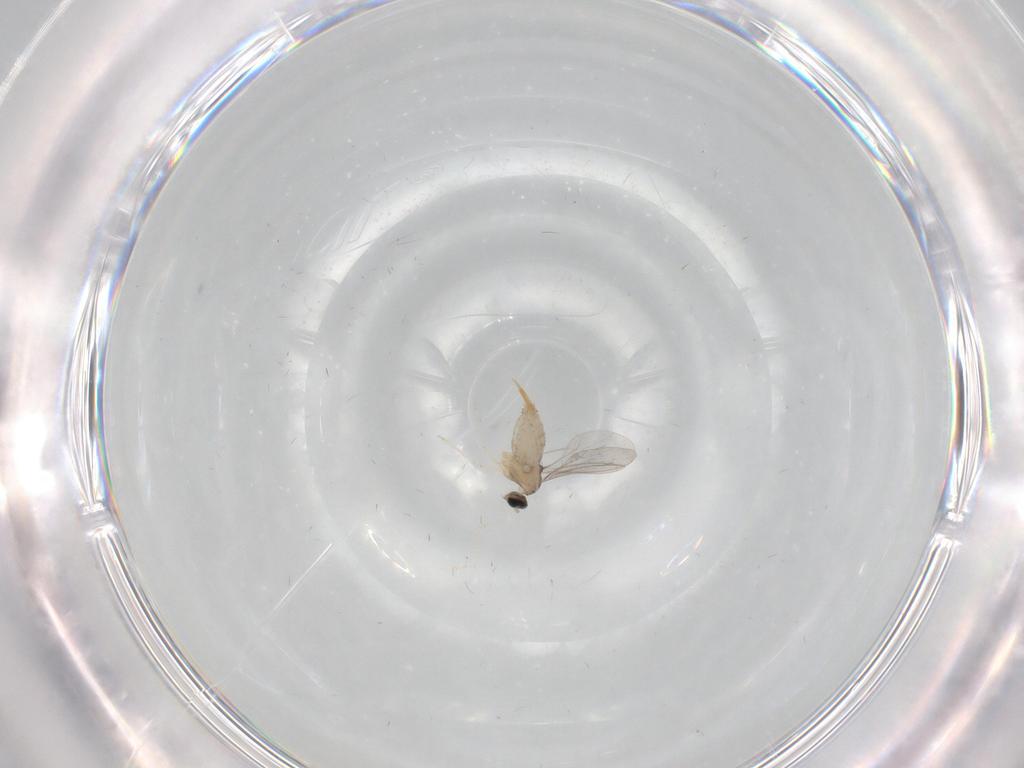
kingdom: Animalia
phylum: Arthropoda
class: Insecta
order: Diptera
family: Cecidomyiidae
